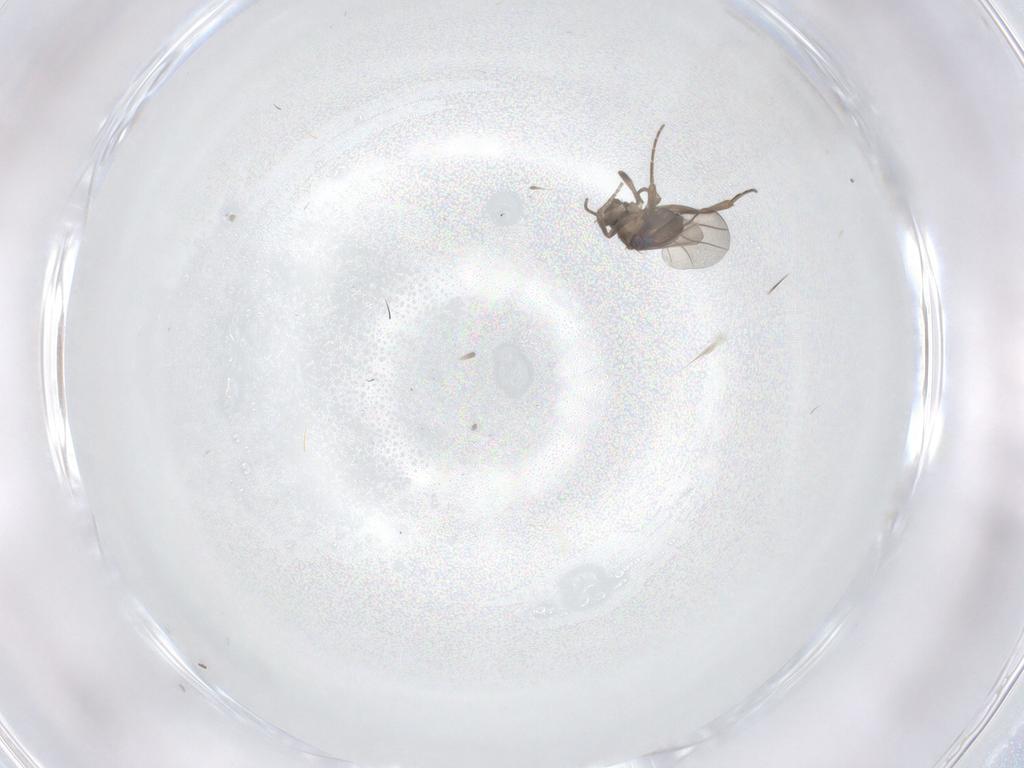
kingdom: Animalia
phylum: Arthropoda
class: Insecta
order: Diptera
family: Phoridae
